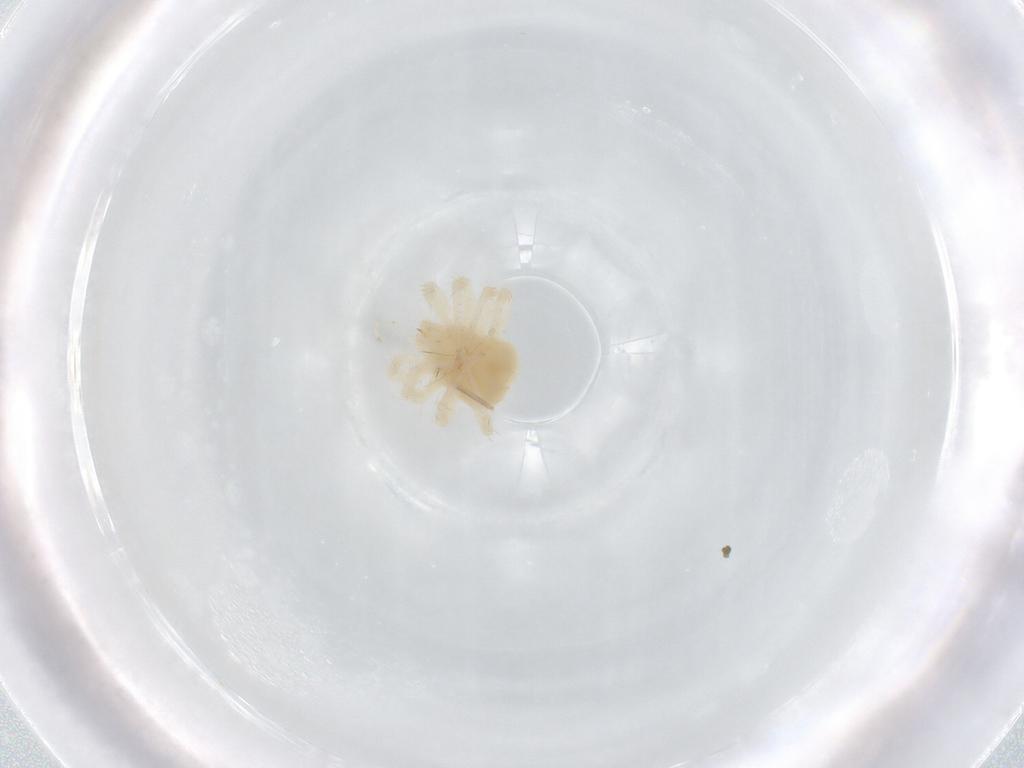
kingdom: Animalia
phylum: Arthropoda
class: Arachnida
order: Trombidiformes
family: Anystidae
